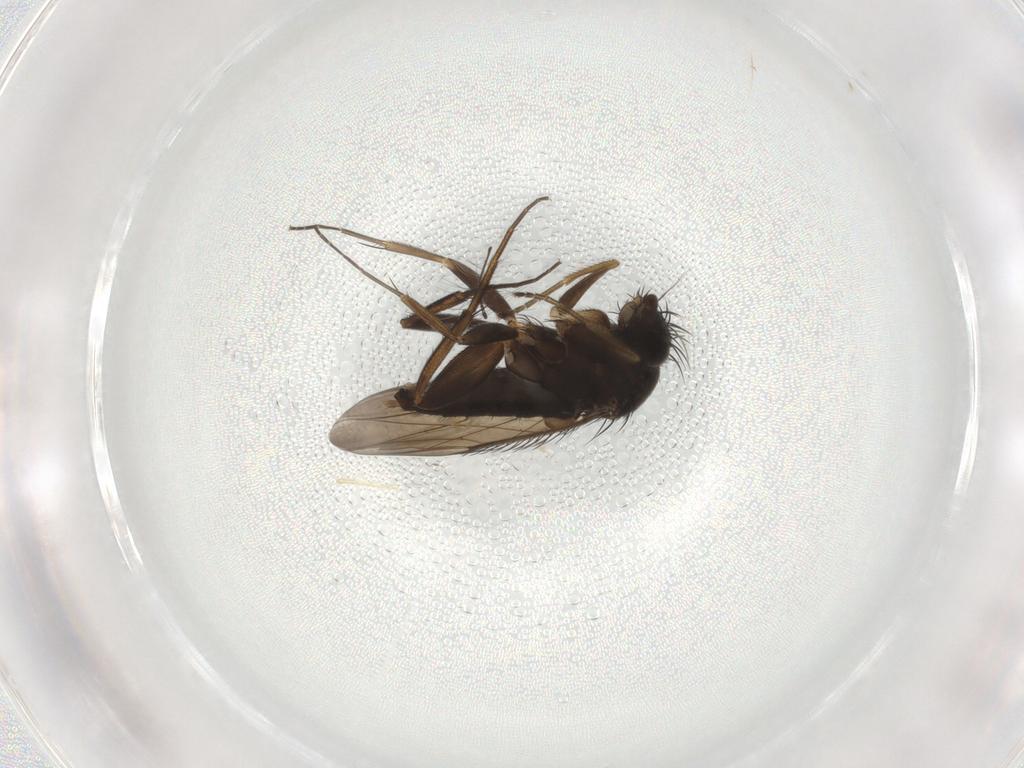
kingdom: Animalia
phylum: Arthropoda
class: Insecta
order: Diptera
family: Phoridae
